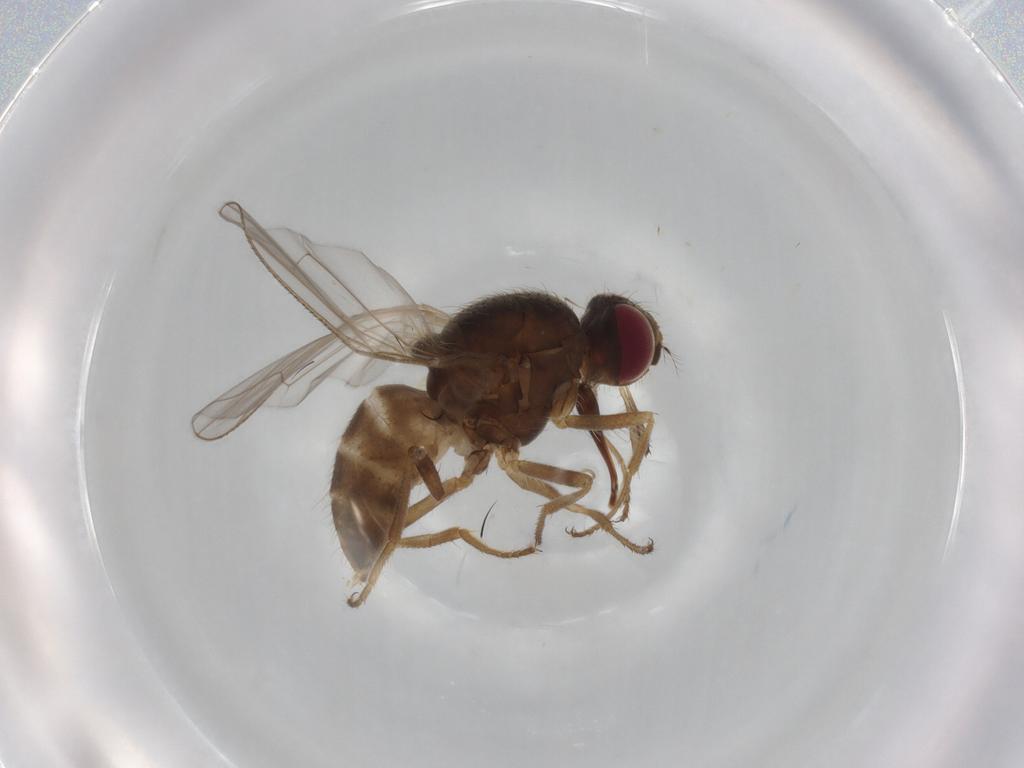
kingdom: Animalia
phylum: Arthropoda
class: Insecta
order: Diptera
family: Muscidae
